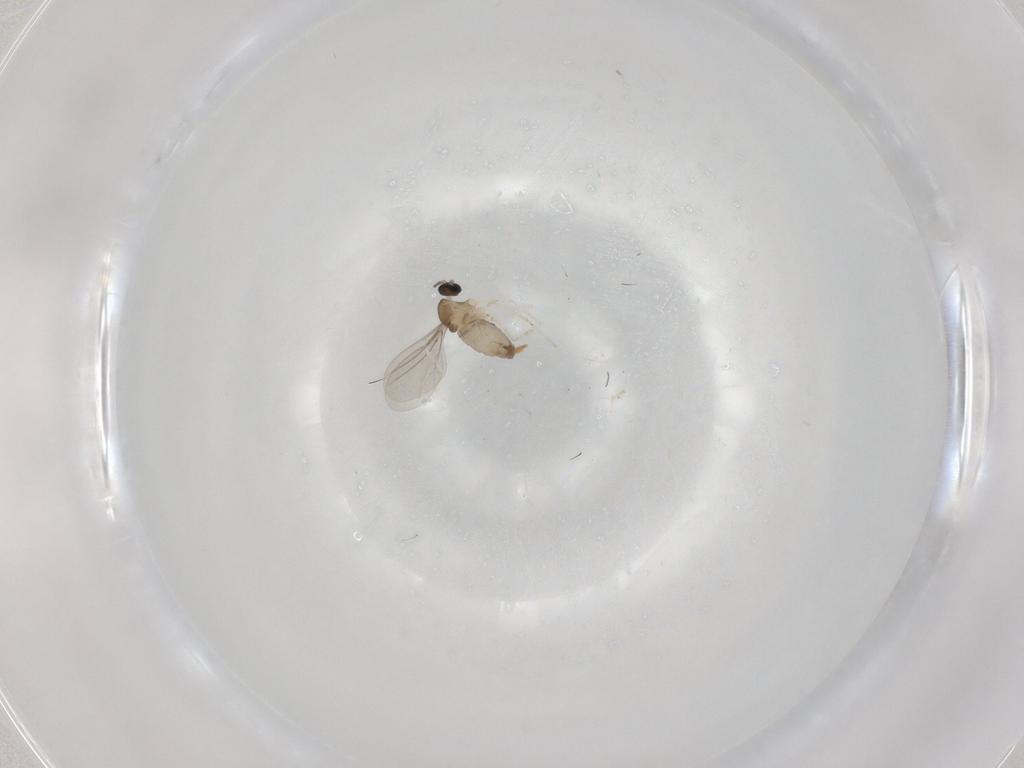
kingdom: Animalia
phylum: Arthropoda
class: Insecta
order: Diptera
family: Cecidomyiidae
